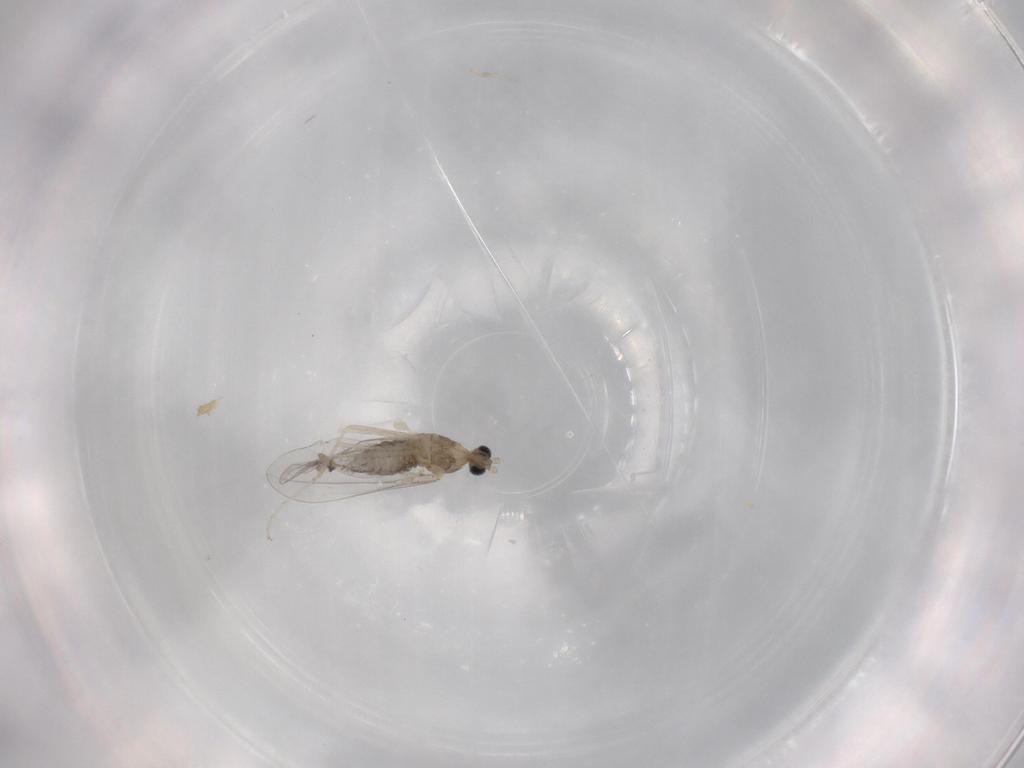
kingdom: Animalia
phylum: Arthropoda
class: Insecta
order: Diptera
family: Cecidomyiidae
